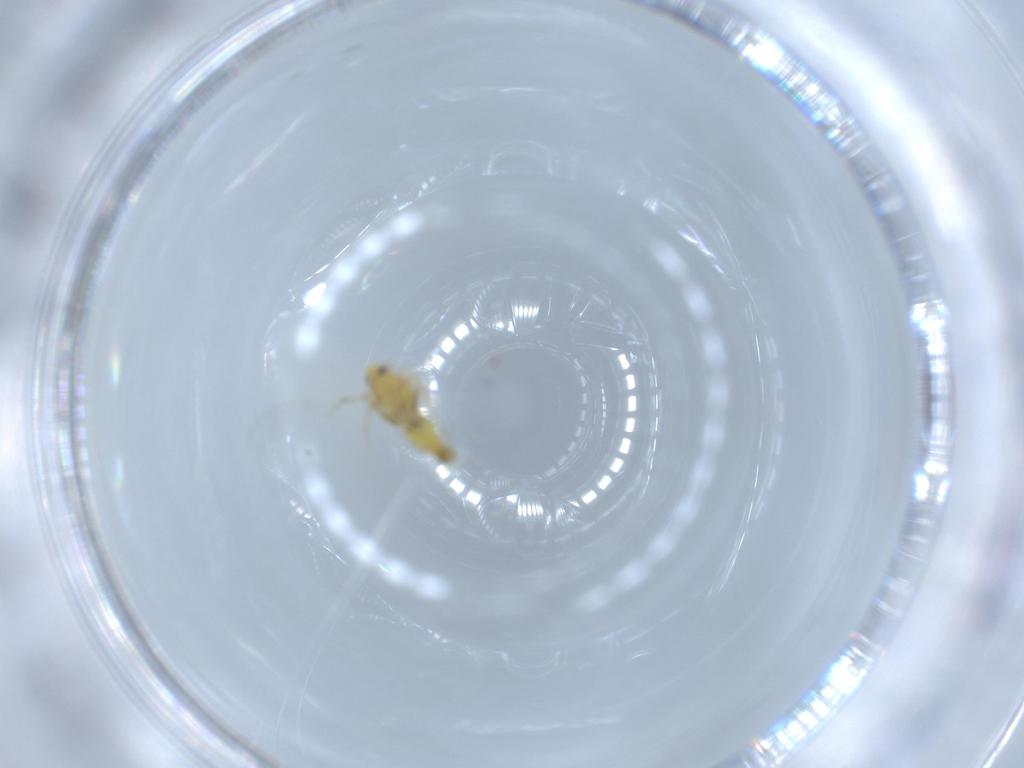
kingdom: Animalia
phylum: Arthropoda
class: Insecta
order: Hemiptera
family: Aleyrodidae
